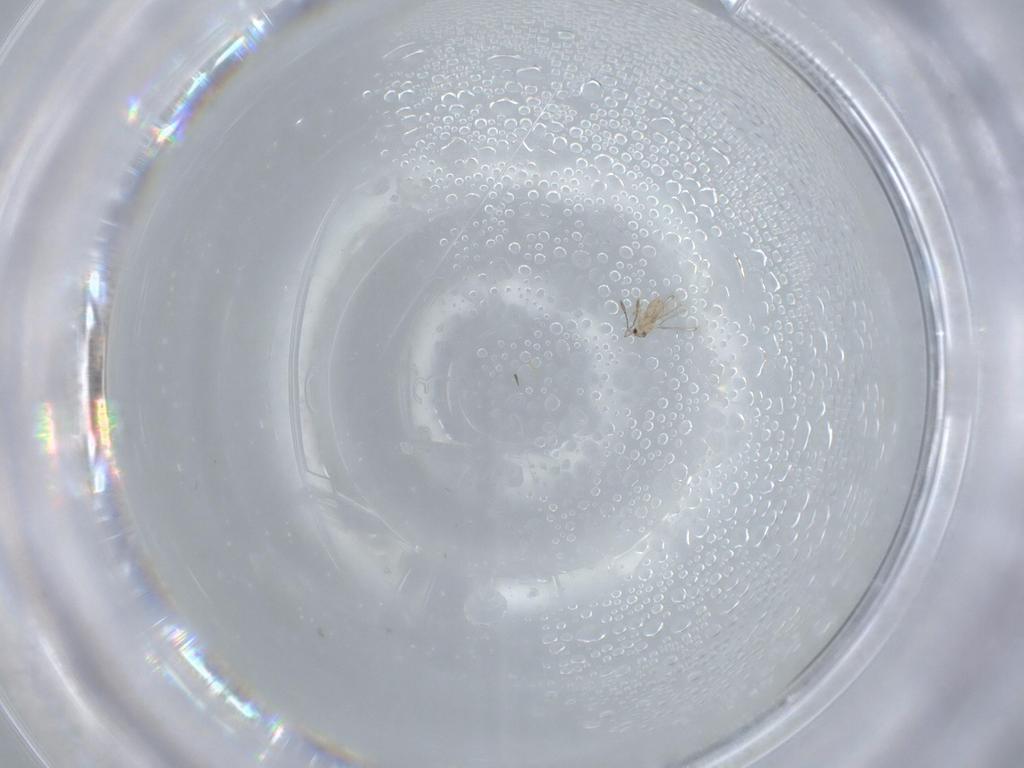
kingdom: Animalia
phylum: Arthropoda
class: Insecta
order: Hymenoptera
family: Mymaridae
